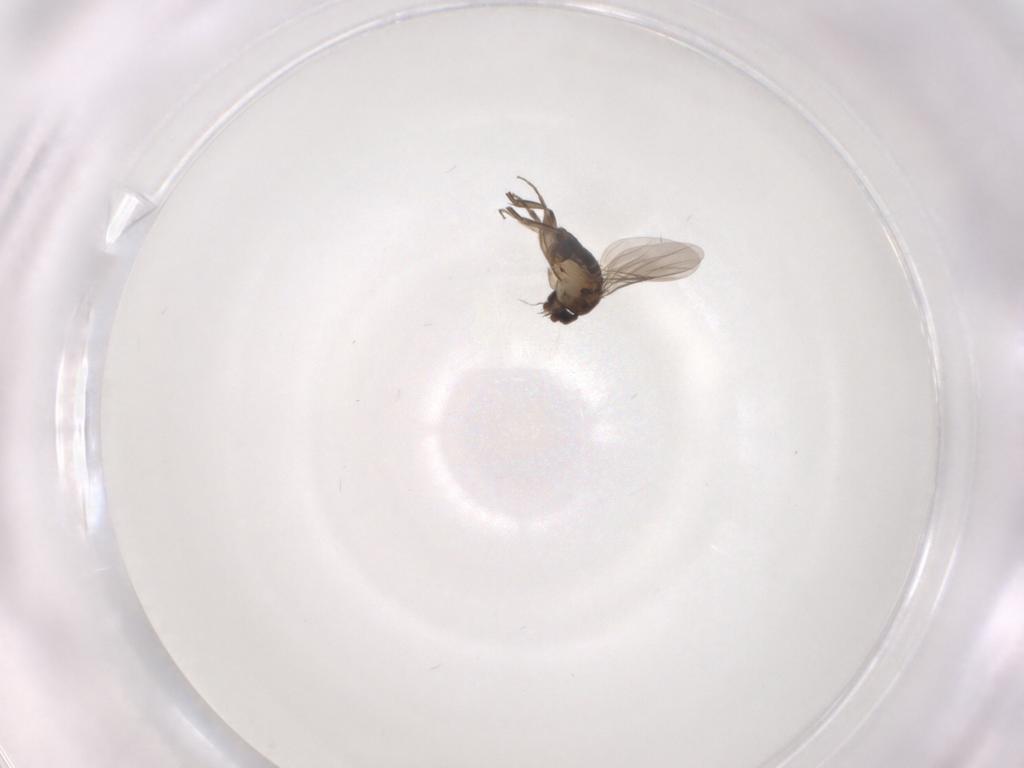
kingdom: Animalia
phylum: Arthropoda
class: Insecta
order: Diptera
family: Phoridae
